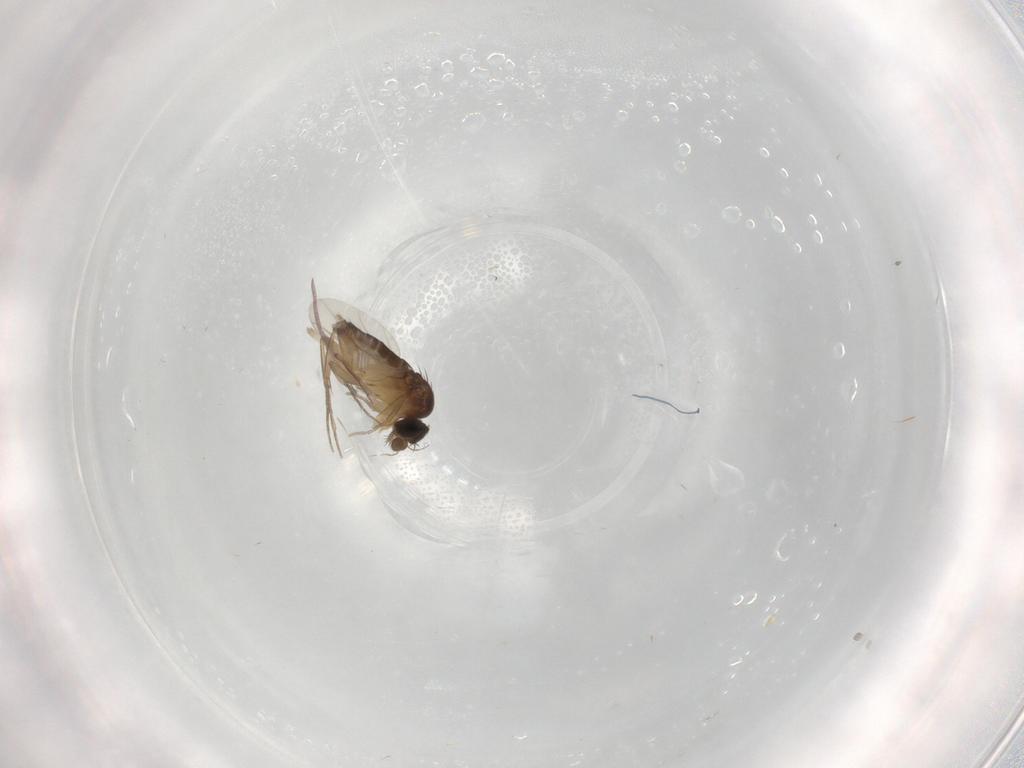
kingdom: Animalia
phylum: Arthropoda
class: Insecta
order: Diptera
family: Phoridae
